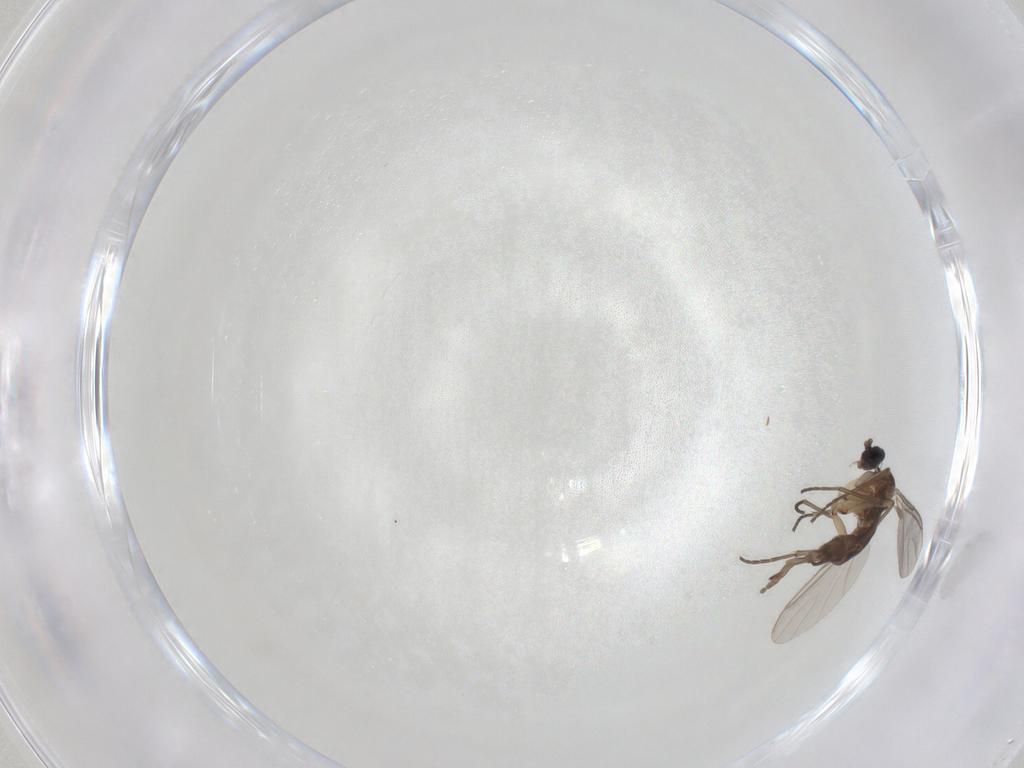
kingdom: Animalia
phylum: Arthropoda
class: Insecta
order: Diptera
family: Sciaridae
